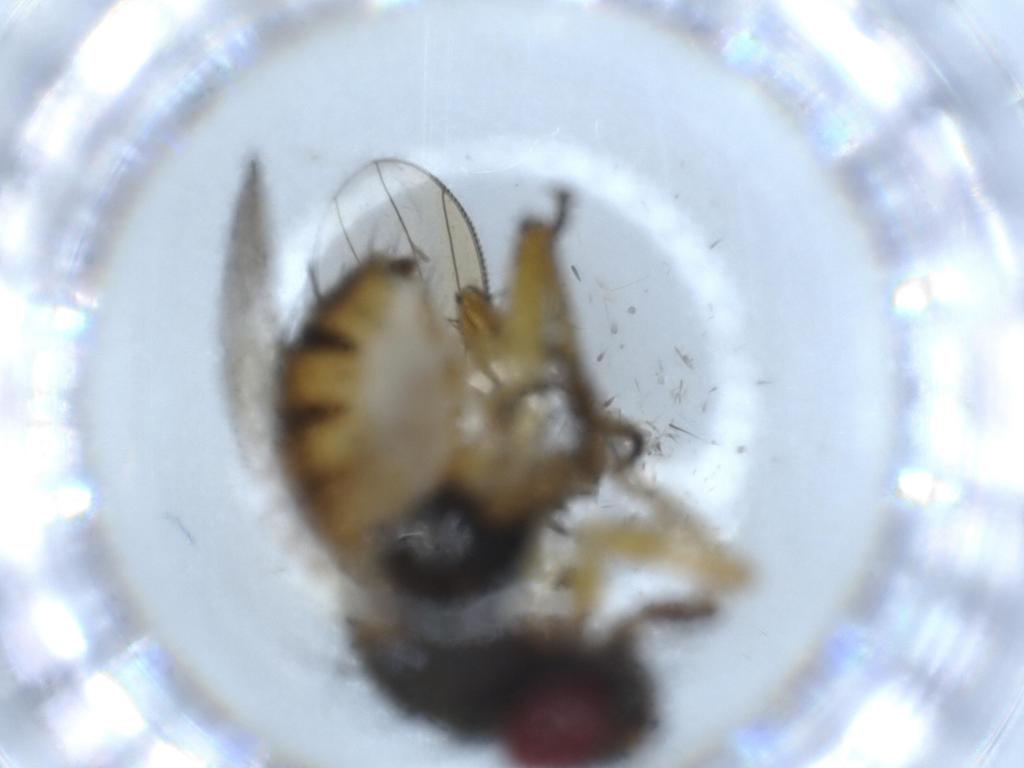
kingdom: Animalia
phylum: Arthropoda
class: Insecta
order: Diptera
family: Muscidae
